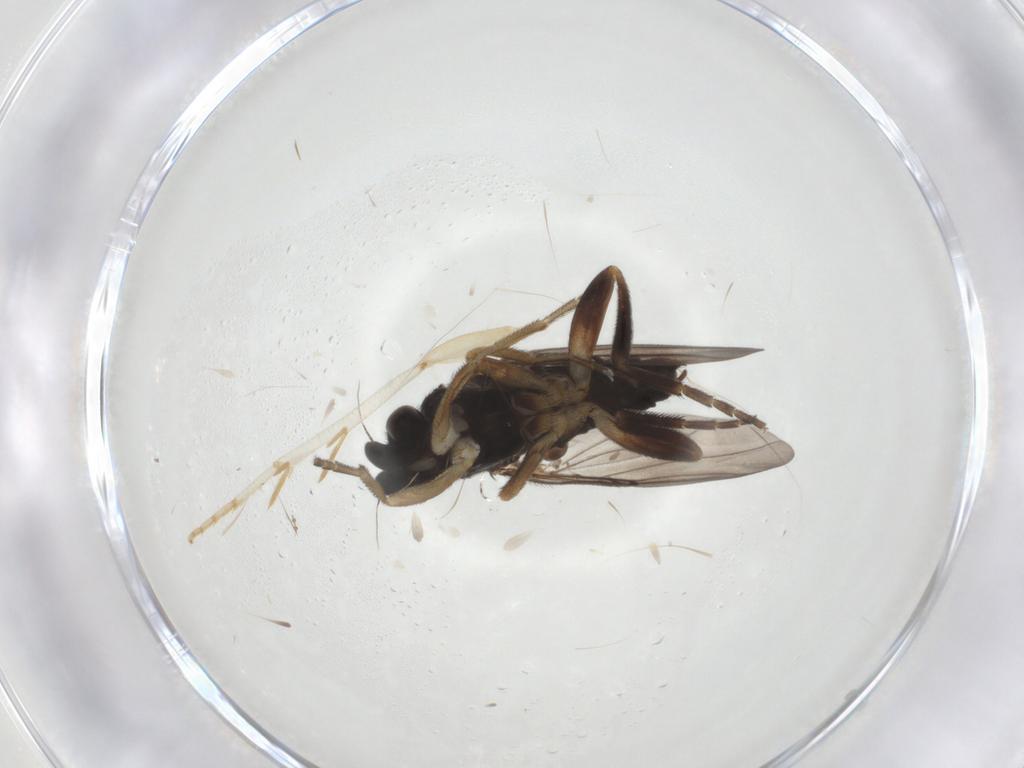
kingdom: Animalia
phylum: Arthropoda
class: Insecta
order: Diptera
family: Phoridae
